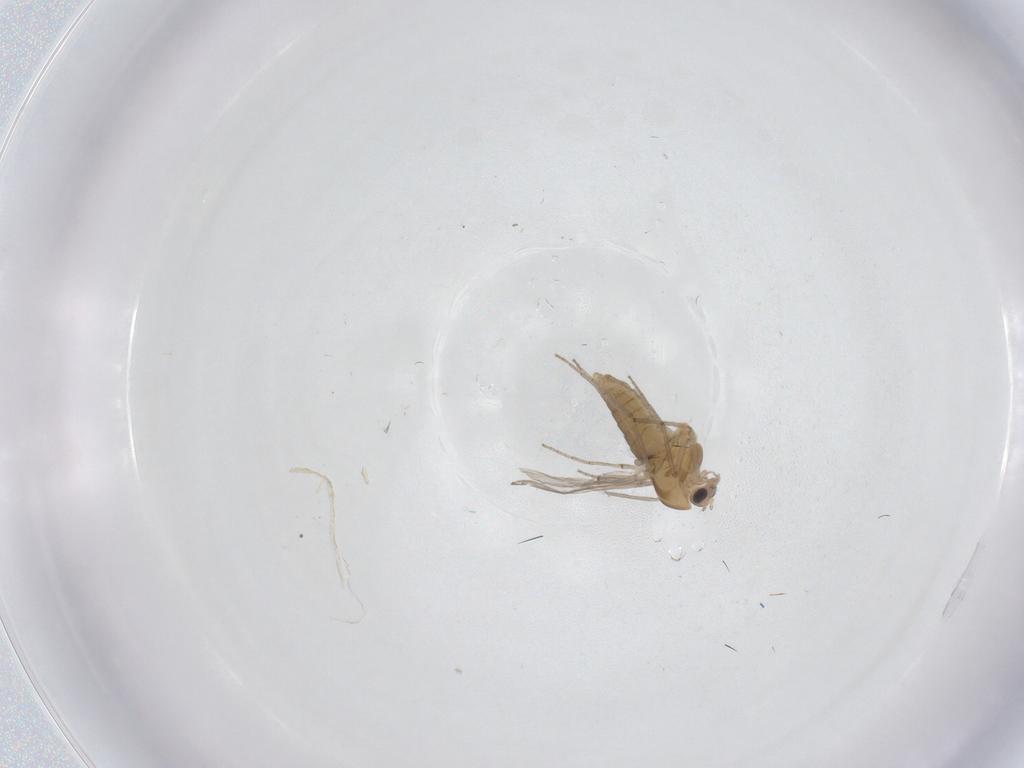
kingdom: Animalia
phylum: Arthropoda
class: Insecta
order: Diptera
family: Chironomidae
